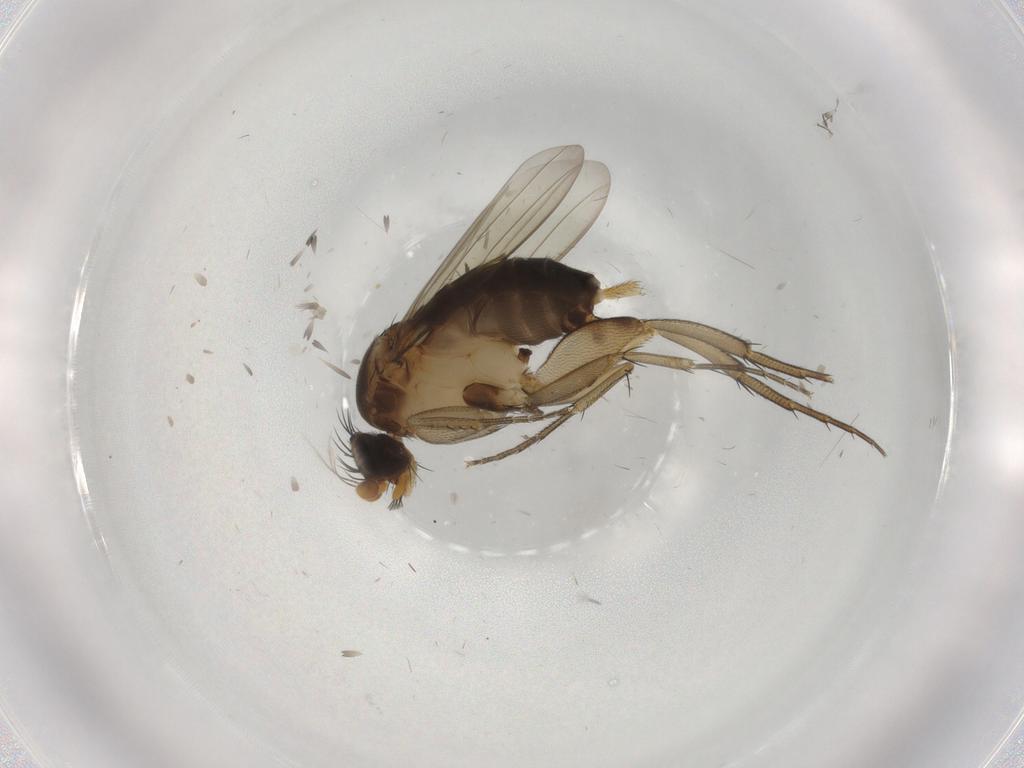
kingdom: Animalia
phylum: Arthropoda
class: Insecta
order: Diptera
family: Phoridae
